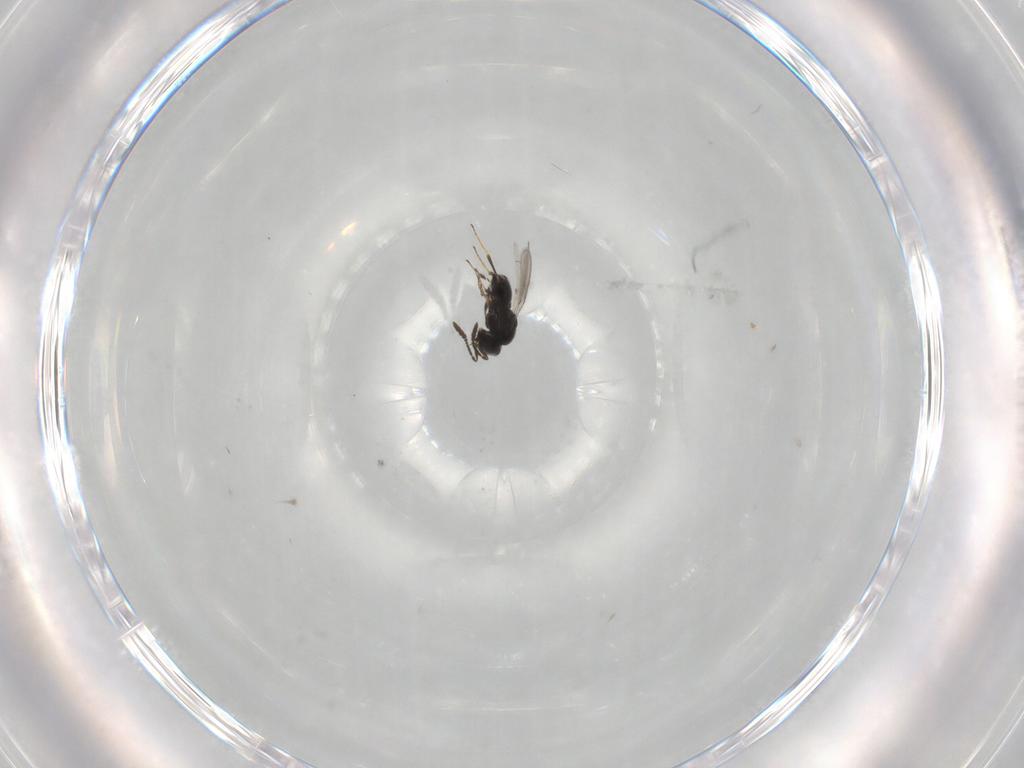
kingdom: Animalia
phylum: Arthropoda
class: Insecta
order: Hymenoptera
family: Scelionidae
